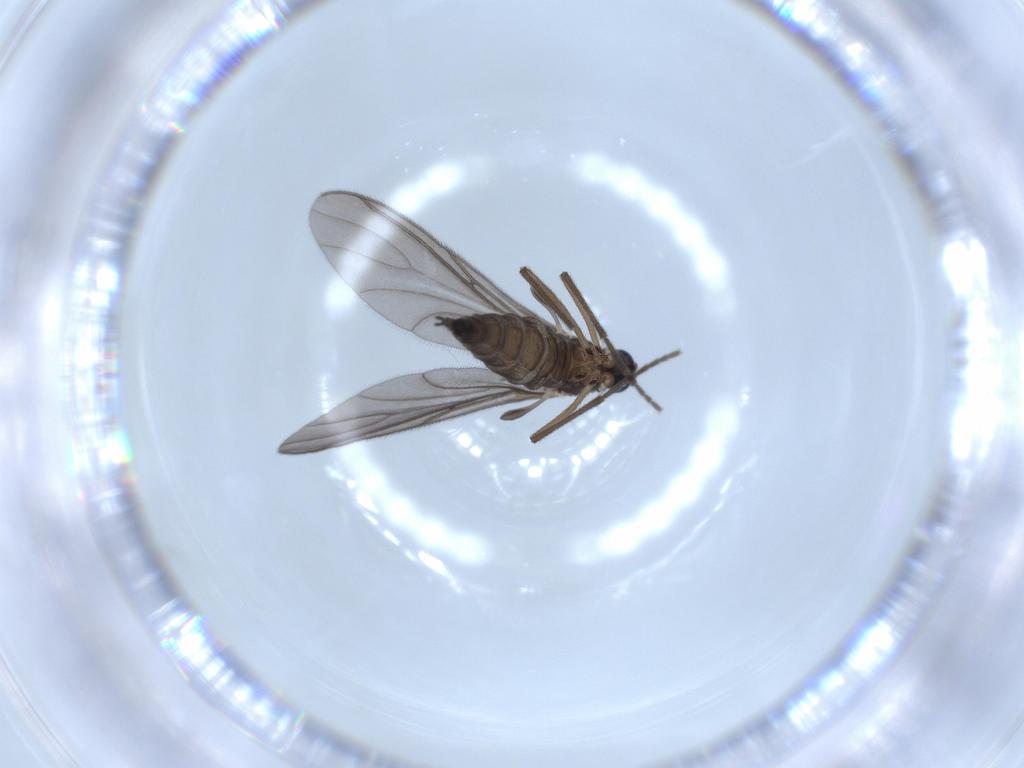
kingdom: Animalia
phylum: Arthropoda
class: Insecta
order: Diptera
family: Sciaridae
